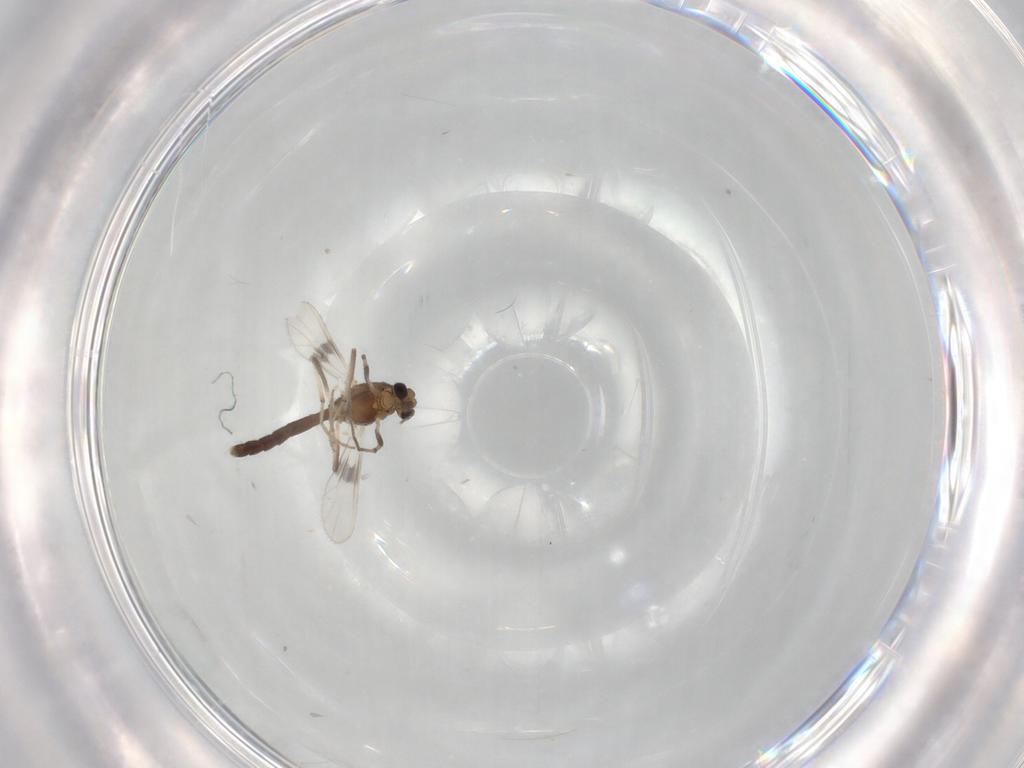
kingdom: Animalia
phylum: Arthropoda
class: Insecta
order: Diptera
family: Chironomidae
